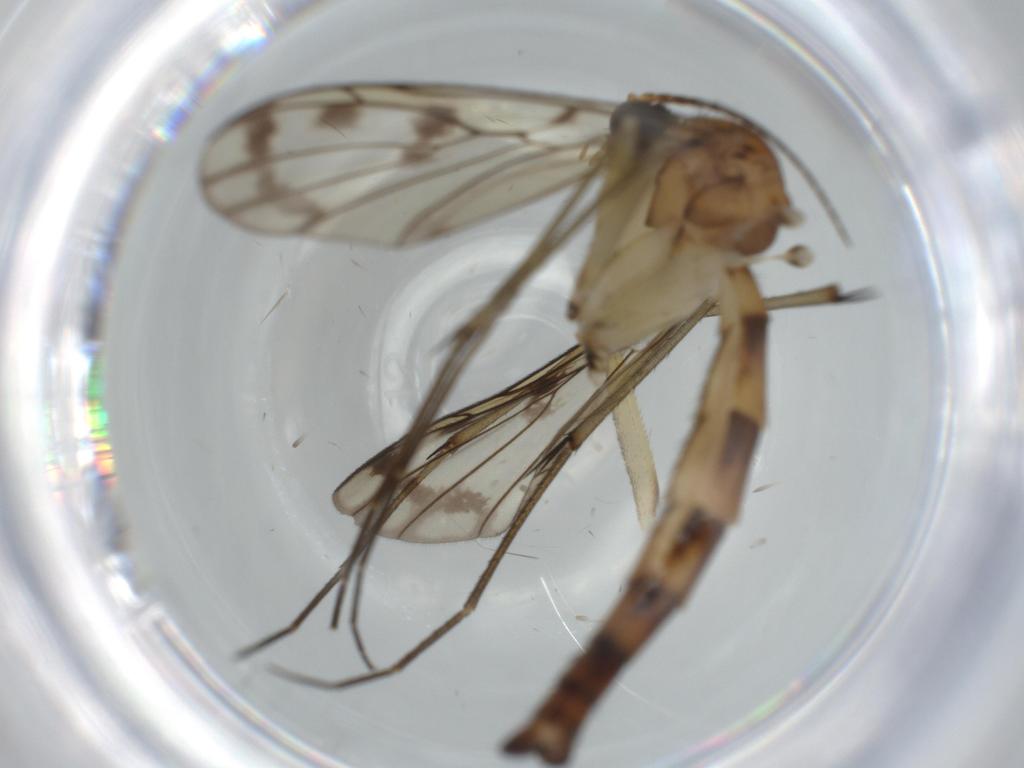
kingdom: Animalia
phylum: Arthropoda
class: Insecta
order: Diptera
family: Keroplatidae
